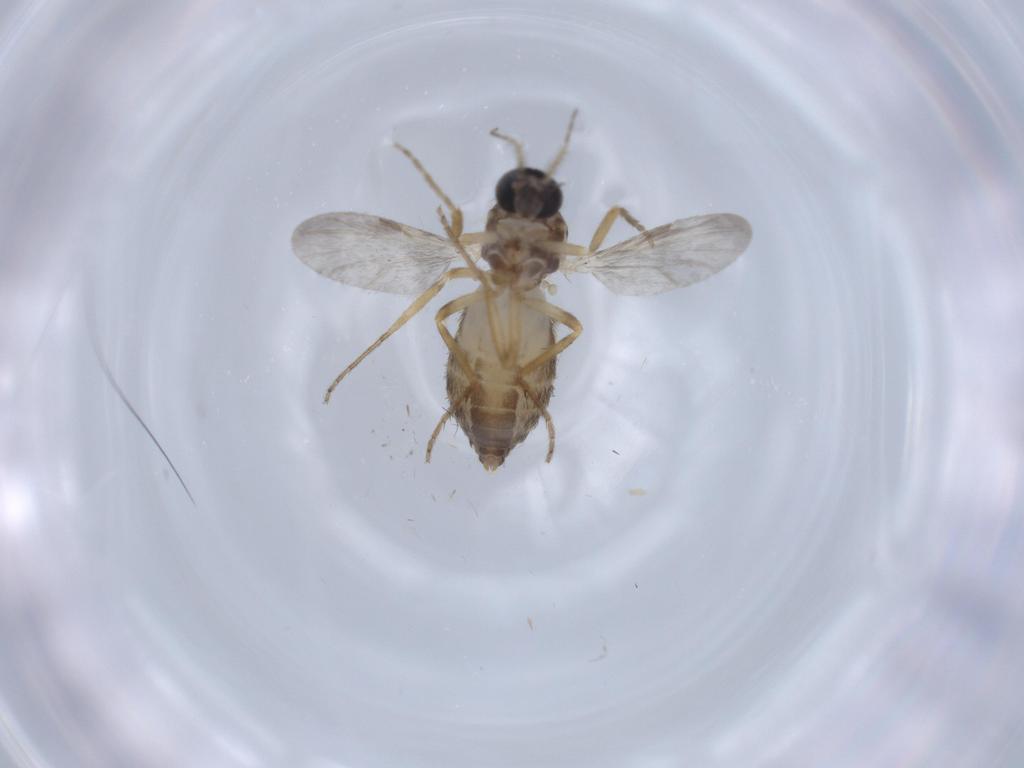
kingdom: Animalia
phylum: Arthropoda
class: Insecta
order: Diptera
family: Ceratopogonidae
